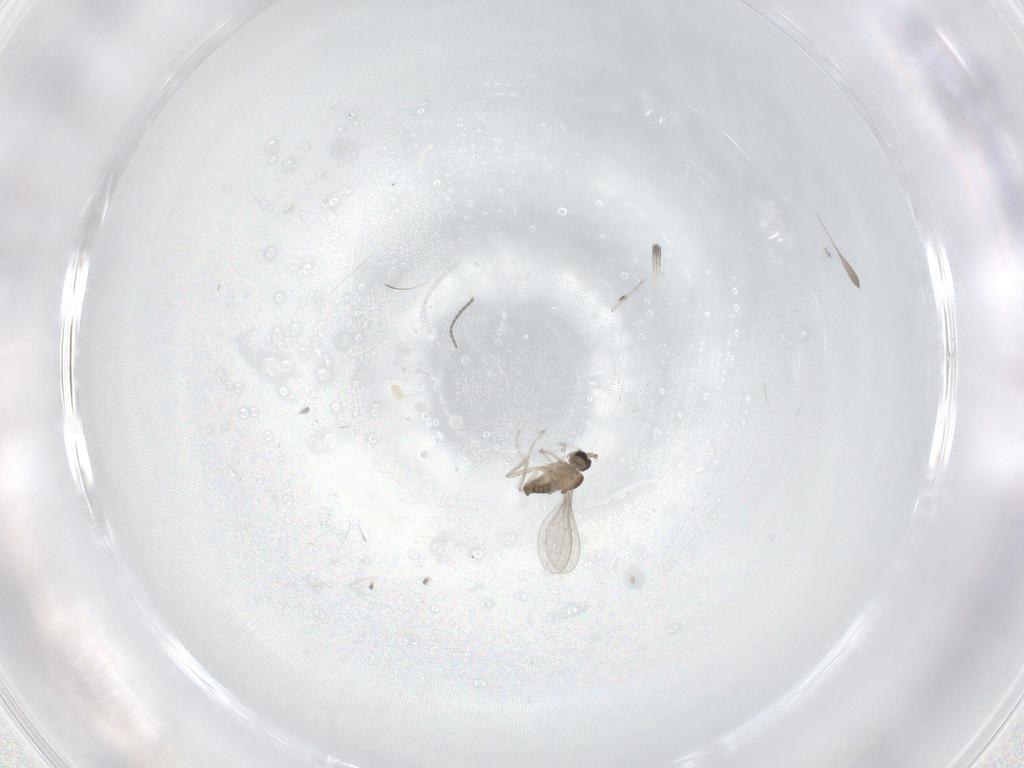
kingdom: Animalia
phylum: Arthropoda
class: Insecta
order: Diptera
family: Cecidomyiidae
